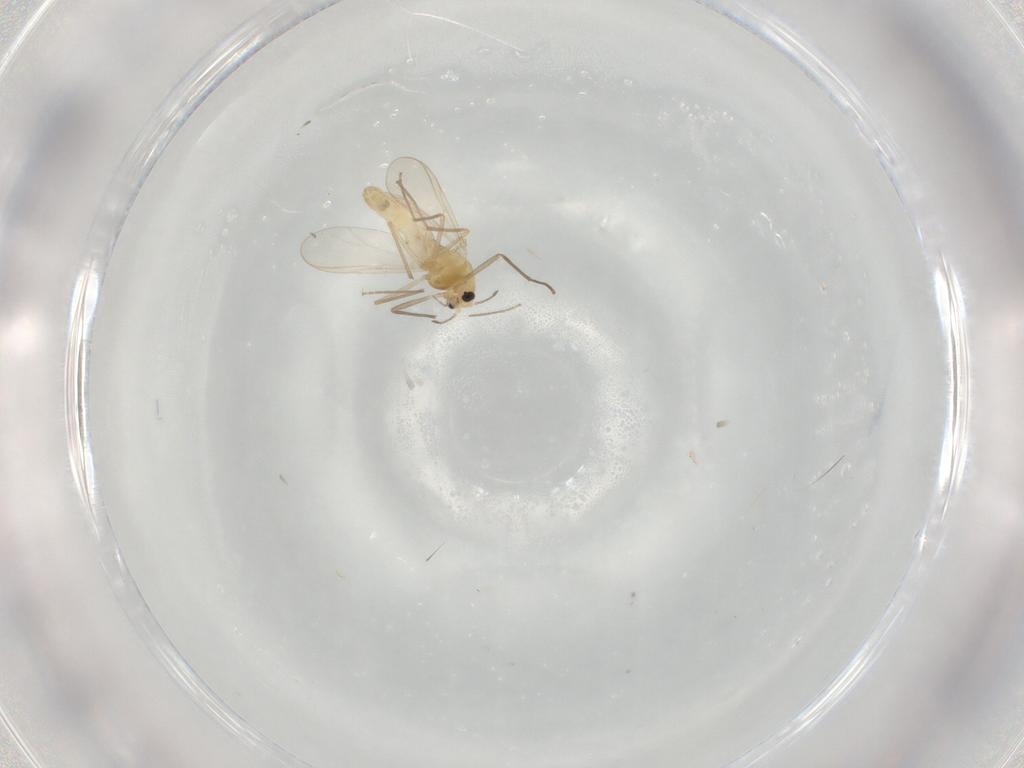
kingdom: Animalia
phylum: Arthropoda
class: Insecta
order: Diptera
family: Chironomidae
